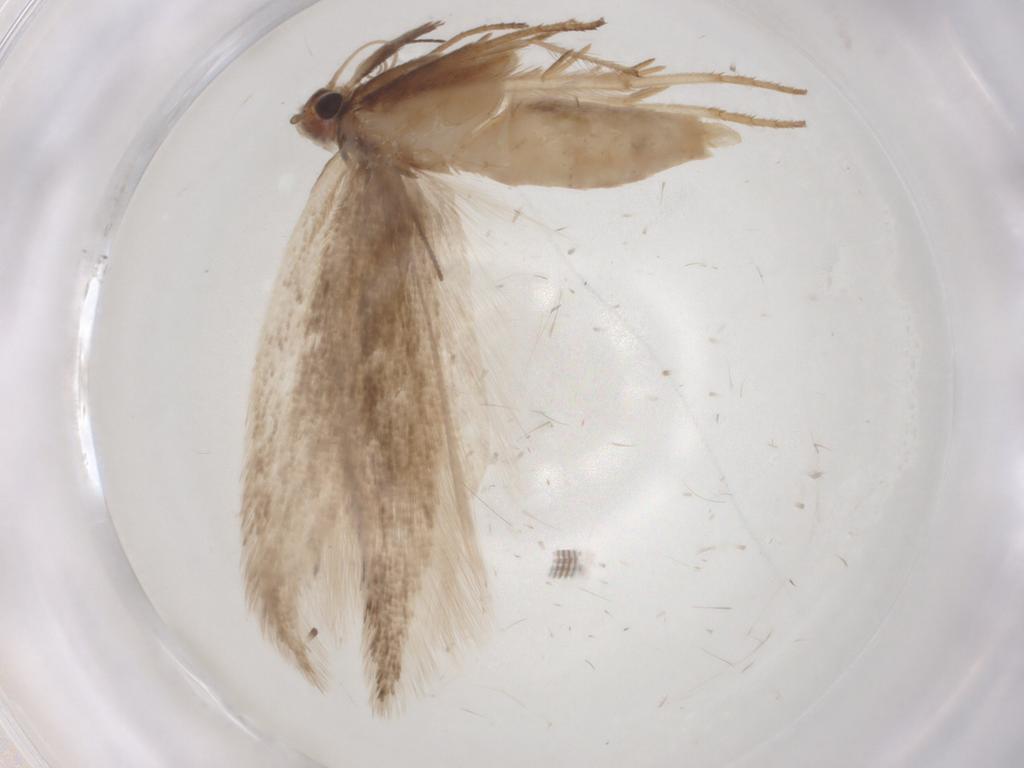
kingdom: Animalia
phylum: Arthropoda
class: Insecta
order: Lepidoptera
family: Gelechiidae
